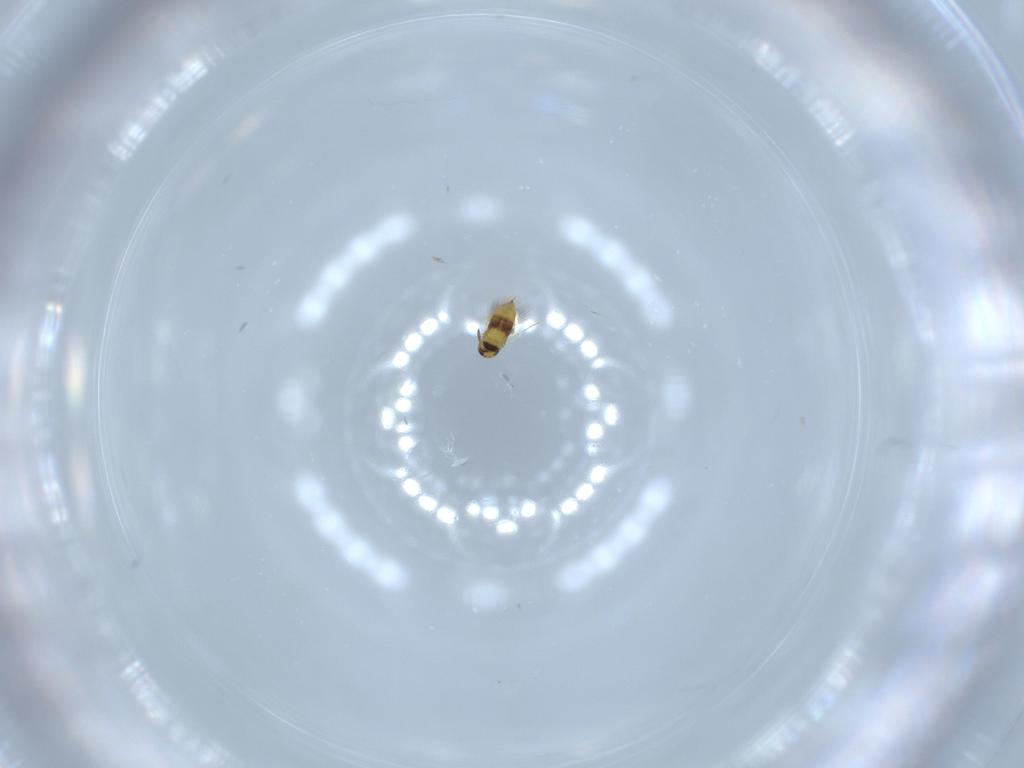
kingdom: Animalia
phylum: Arthropoda
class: Insecta
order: Hymenoptera
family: Signiphoridae
